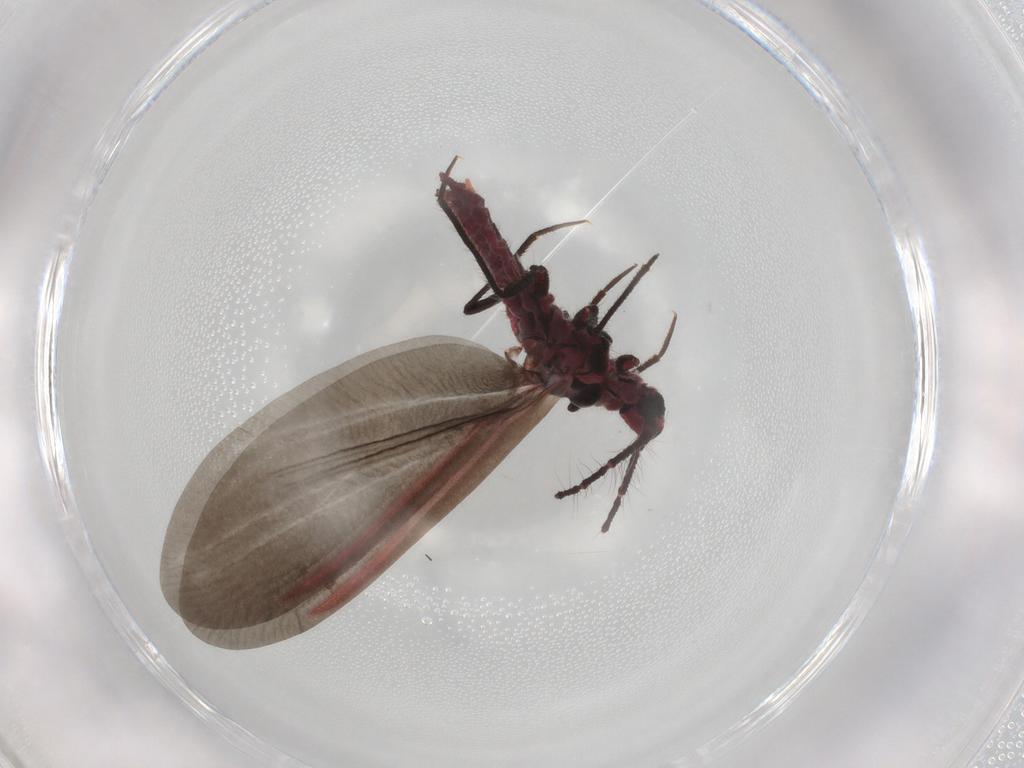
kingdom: Animalia
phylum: Arthropoda
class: Insecta
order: Hemiptera
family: Monophlebidae
